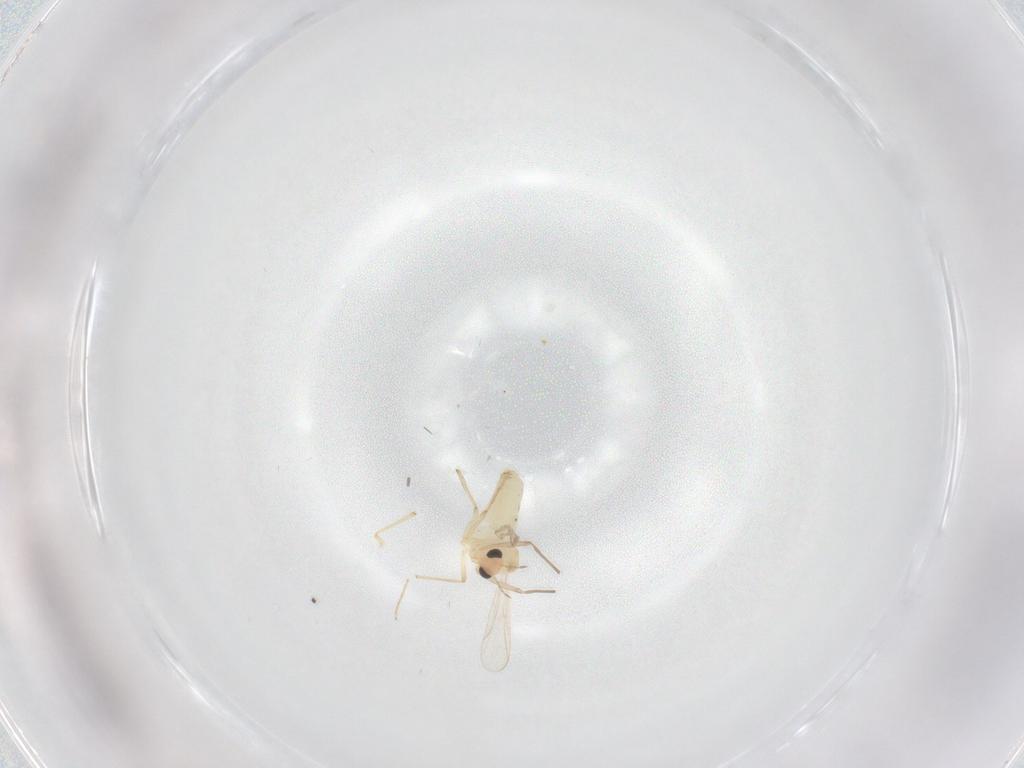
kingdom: Animalia
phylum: Arthropoda
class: Insecta
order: Diptera
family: Chironomidae
